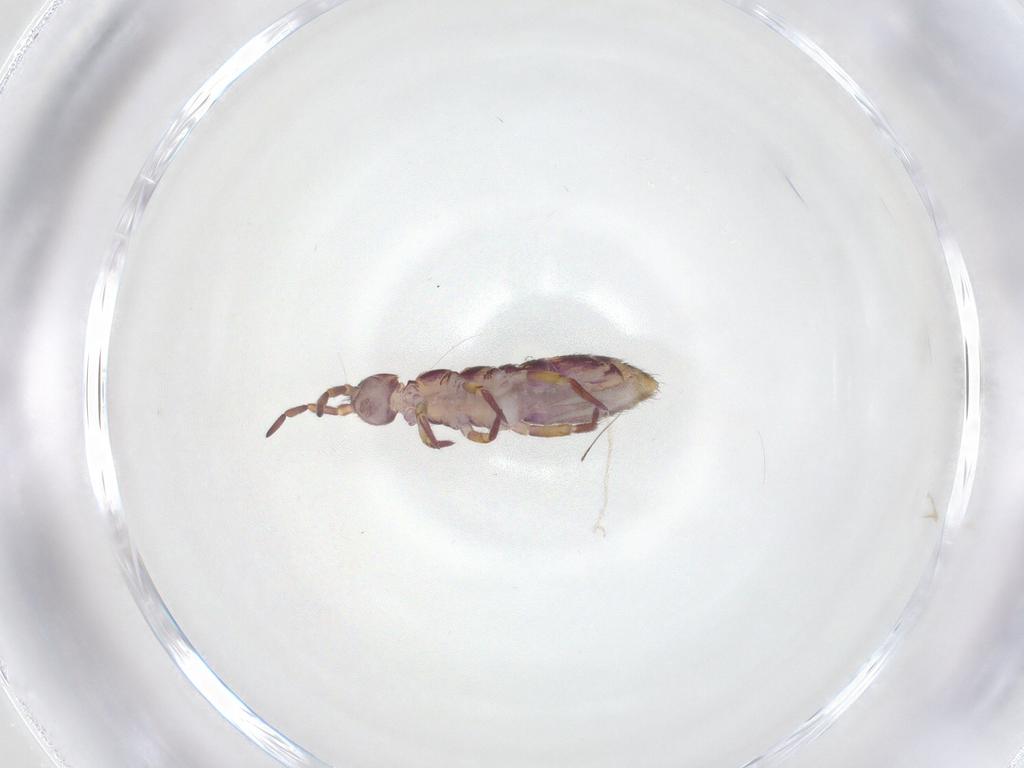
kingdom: Animalia
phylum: Arthropoda
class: Collembola
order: Entomobryomorpha
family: Isotomidae
